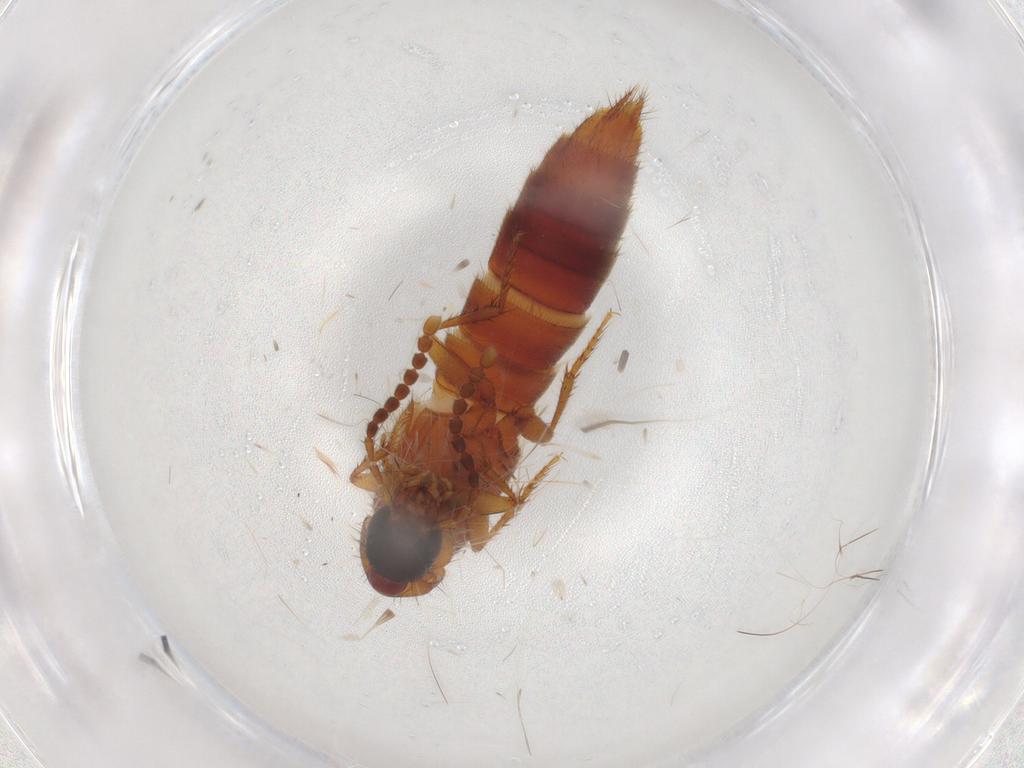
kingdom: Animalia
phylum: Arthropoda
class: Insecta
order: Coleoptera
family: Staphylinidae
